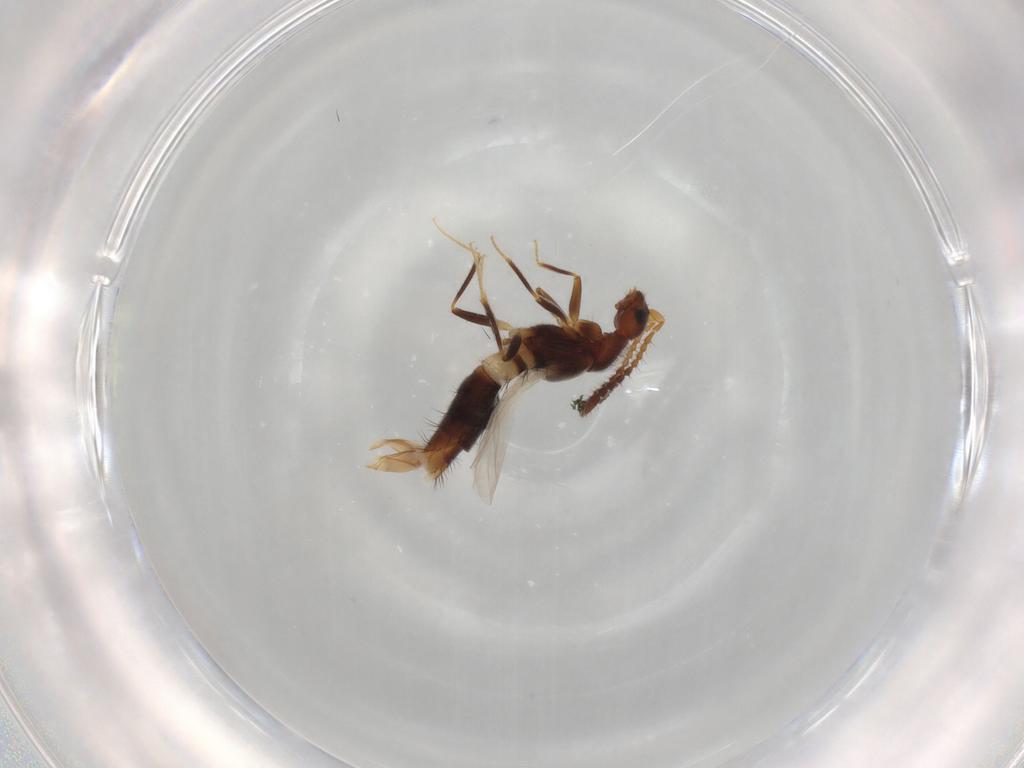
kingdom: Animalia
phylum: Arthropoda
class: Insecta
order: Coleoptera
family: Staphylinidae
